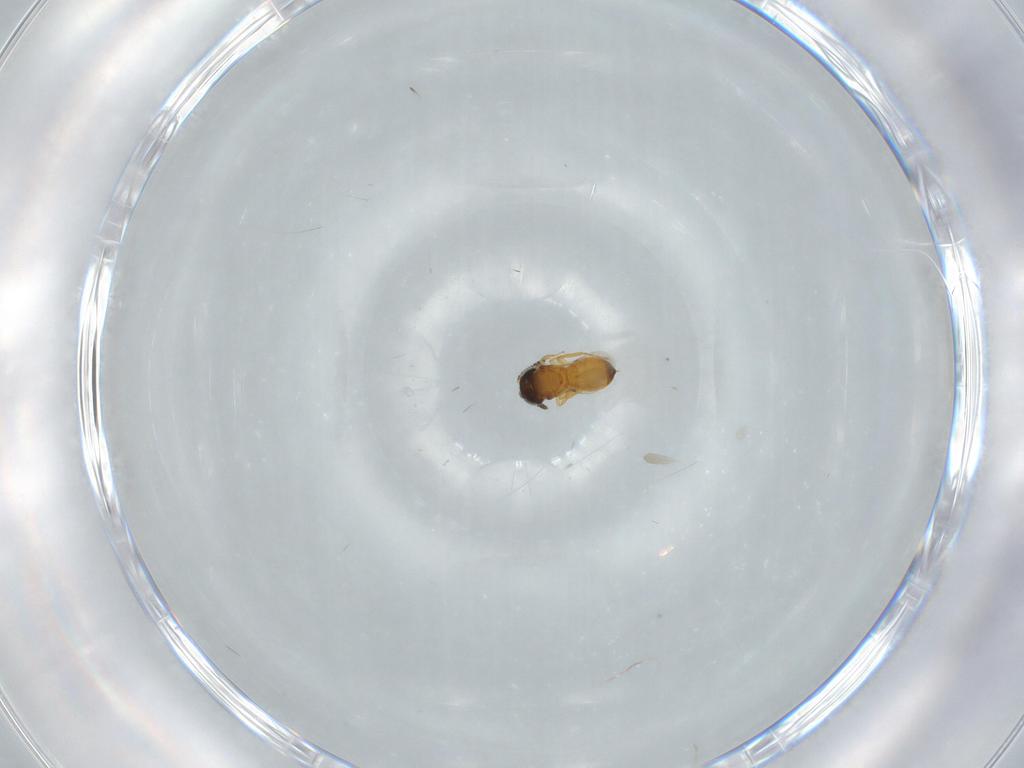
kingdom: Animalia
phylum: Arthropoda
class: Insecta
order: Hymenoptera
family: Scelionidae
